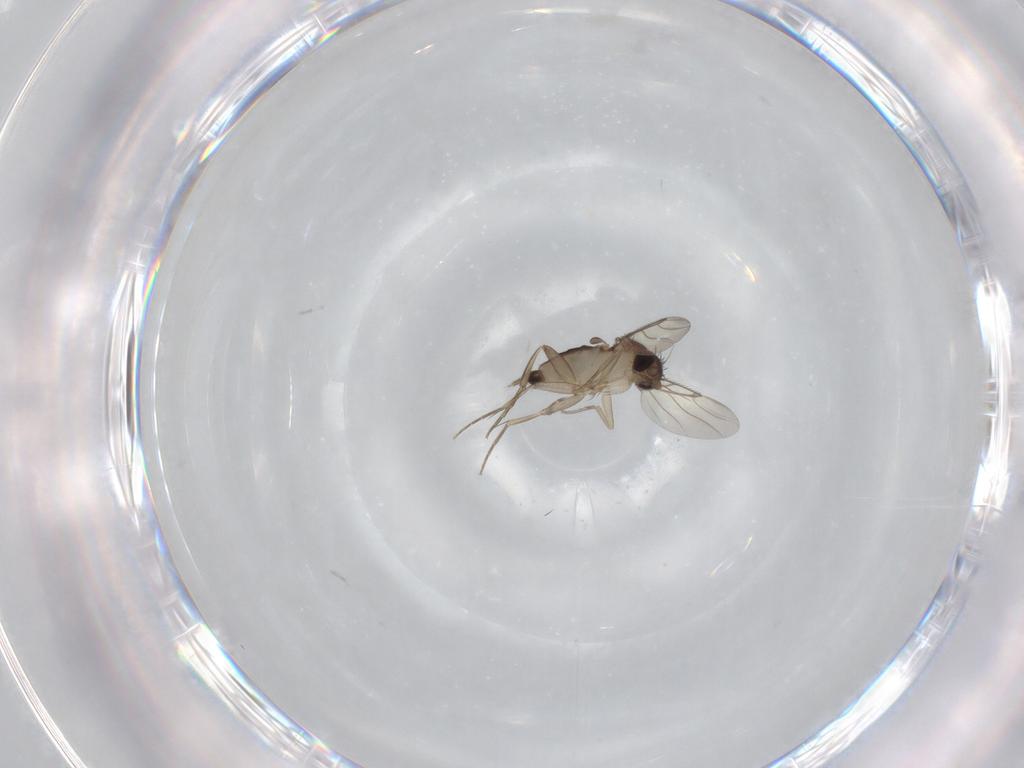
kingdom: Animalia
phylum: Arthropoda
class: Insecta
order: Diptera
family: Phoridae
